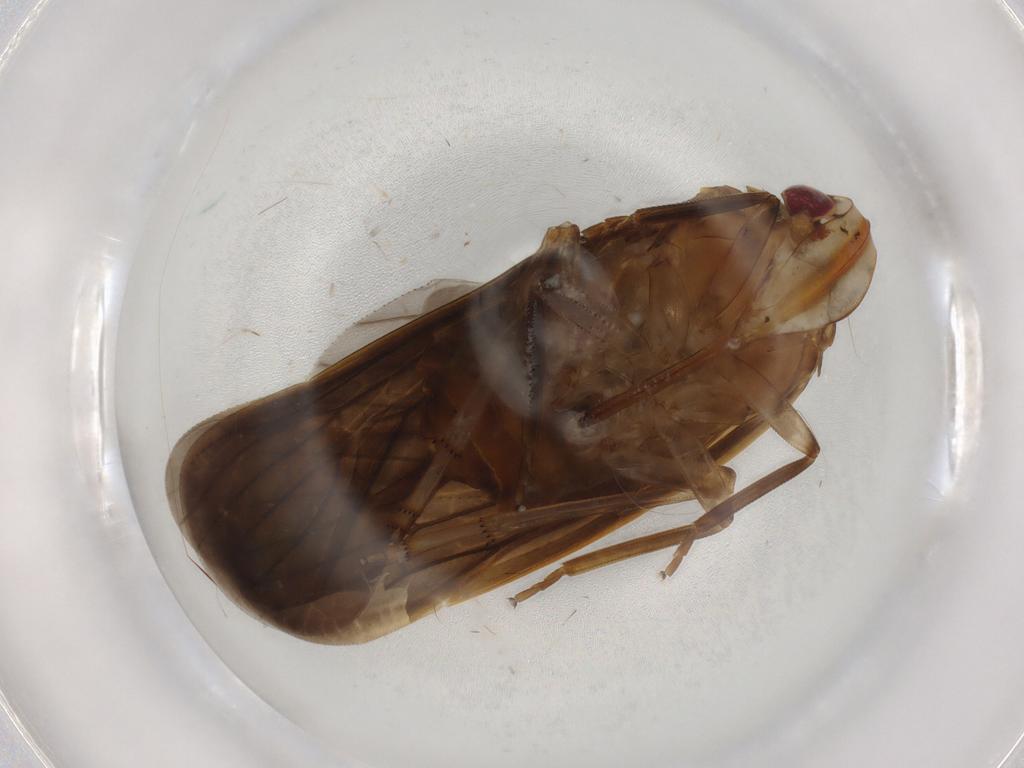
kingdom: Animalia
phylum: Arthropoda
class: Insecta
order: Hemiptera
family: Achilidae
